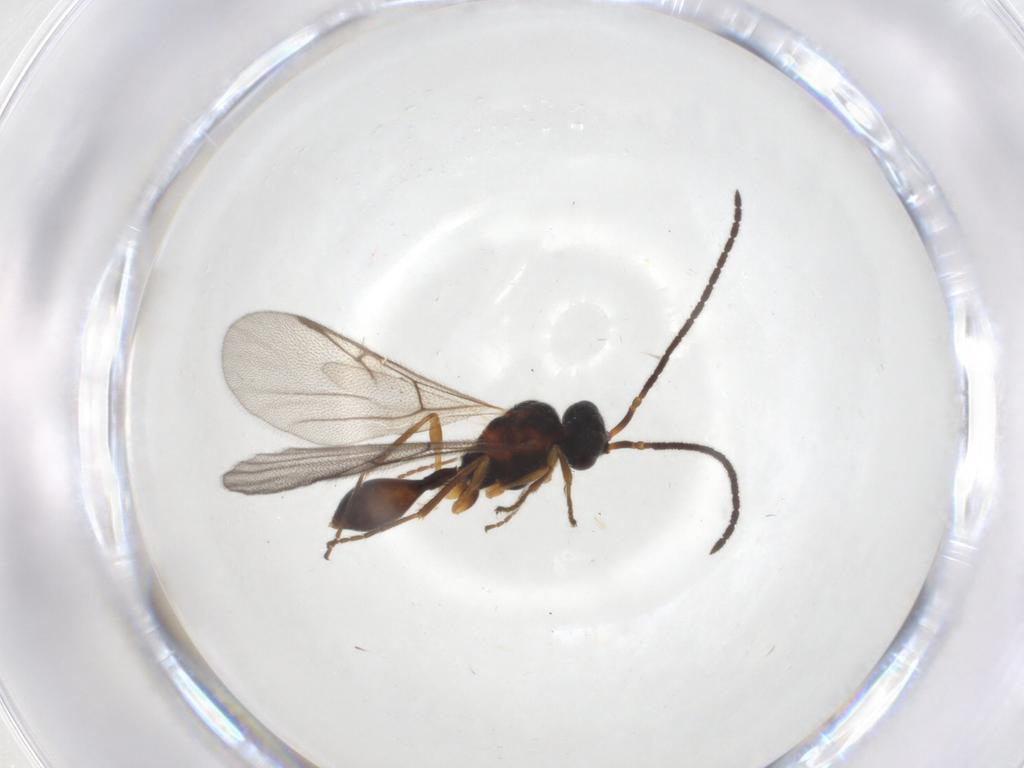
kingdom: Animalia
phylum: Arthropoda
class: Insecta
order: Hymenoptera
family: Diapriidae
